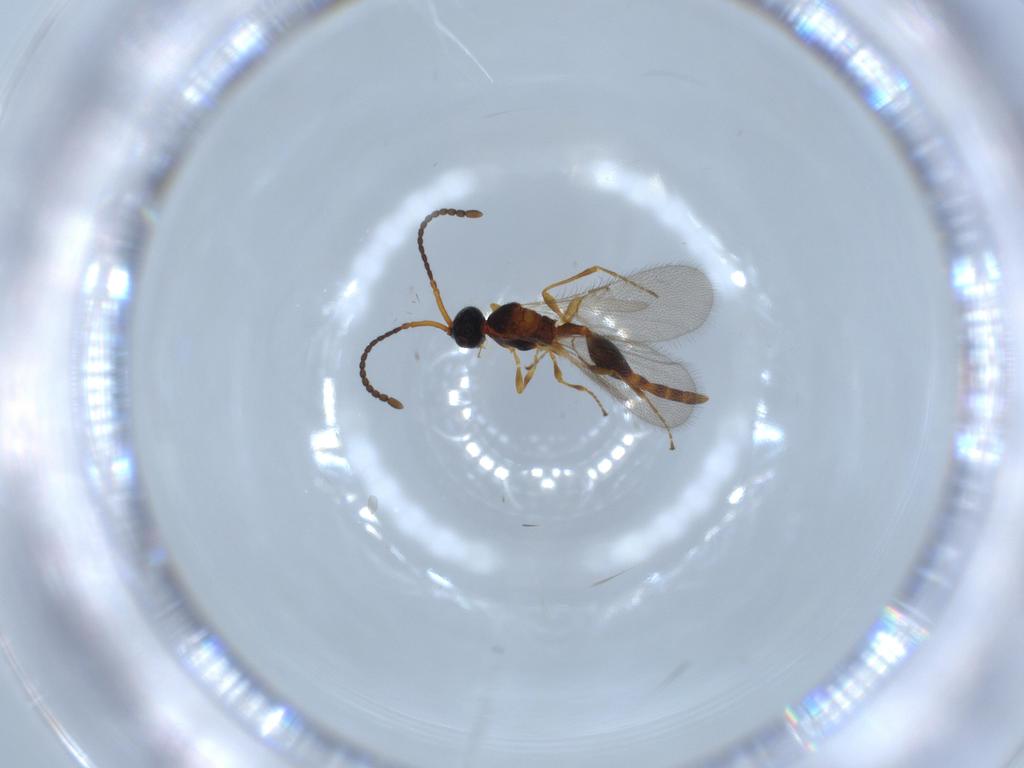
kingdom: Animalia
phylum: Arthropoda
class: Insecta
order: Hymenoptera
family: Diapriidae
